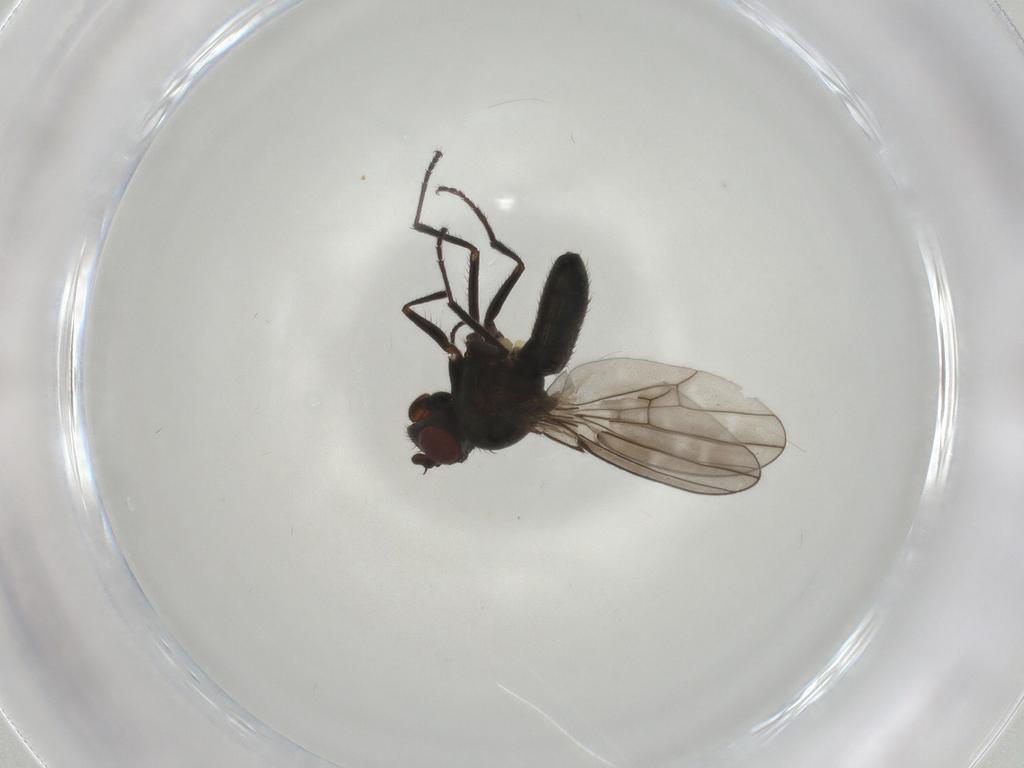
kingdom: Animalia
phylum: Arthropoda
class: Insecta
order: Diptera
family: Ephydridae
